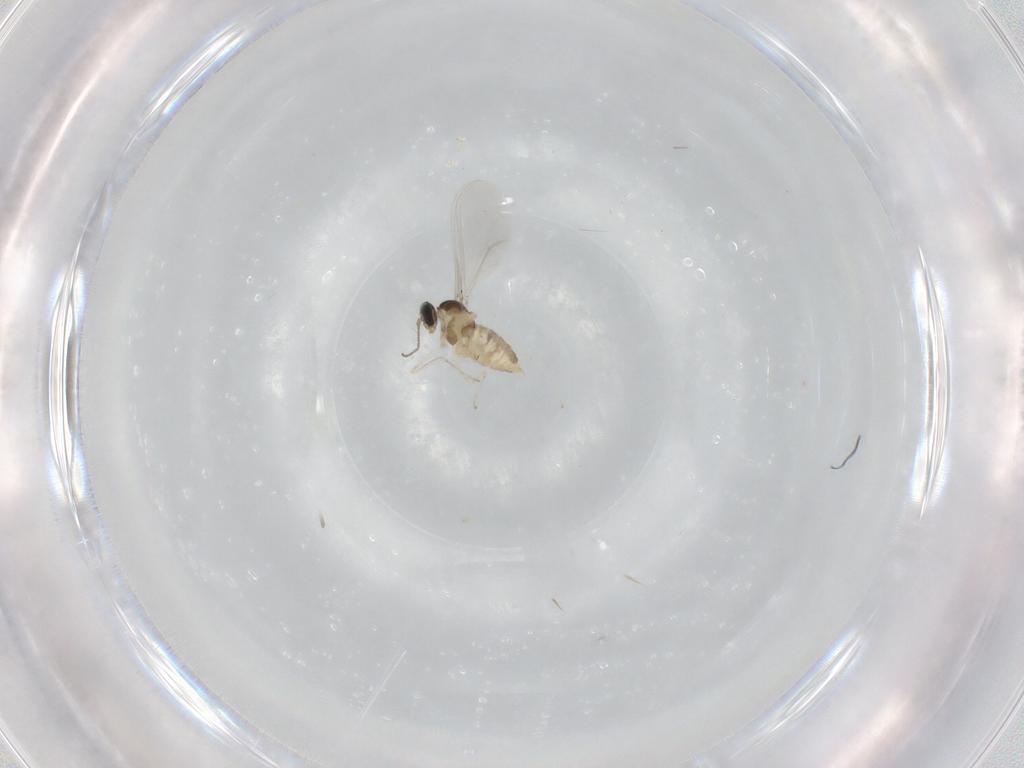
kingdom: Animalia
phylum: Arthropoda
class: Insecta
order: Diptera
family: Cecidomyiidae
